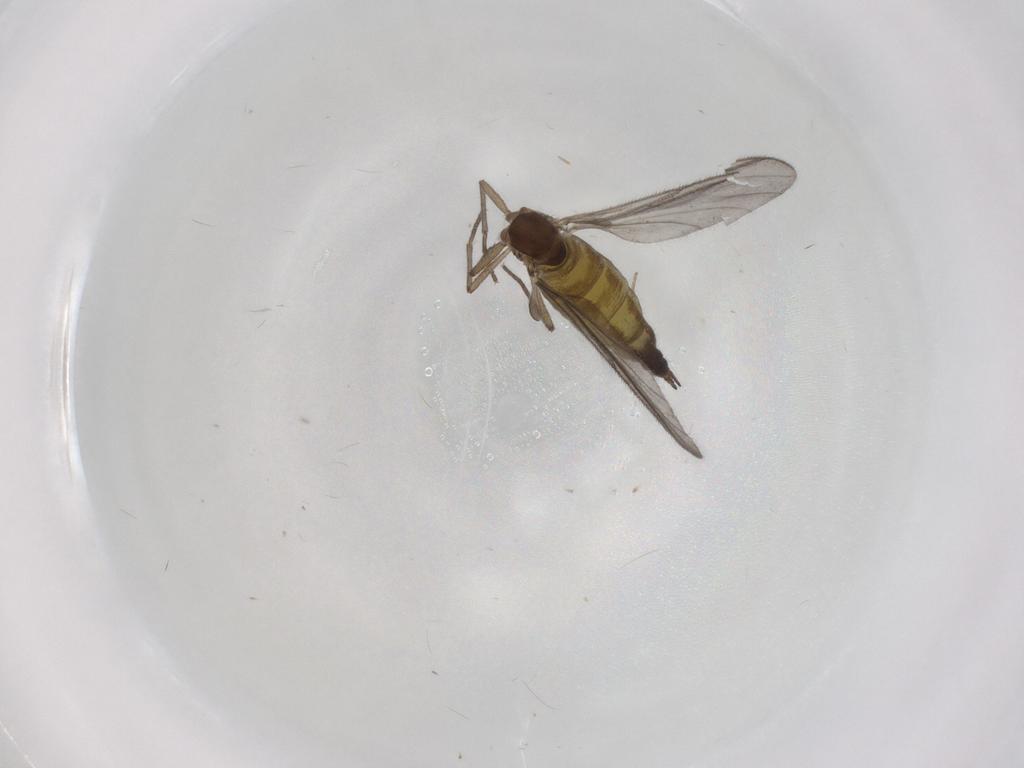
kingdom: Animalia
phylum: Arthropoda
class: Insecta
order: Diptera
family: Sciaridae
